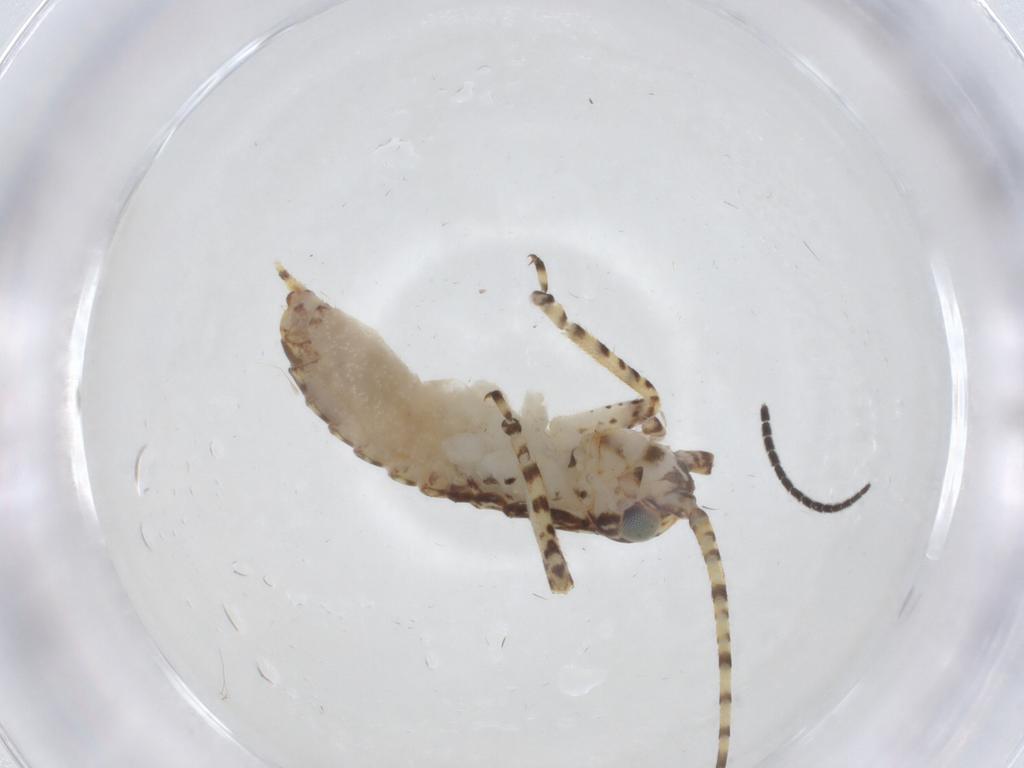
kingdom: Animalia
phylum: Arthropoda
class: Insecta
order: Orthoptera
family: Gryllidae
